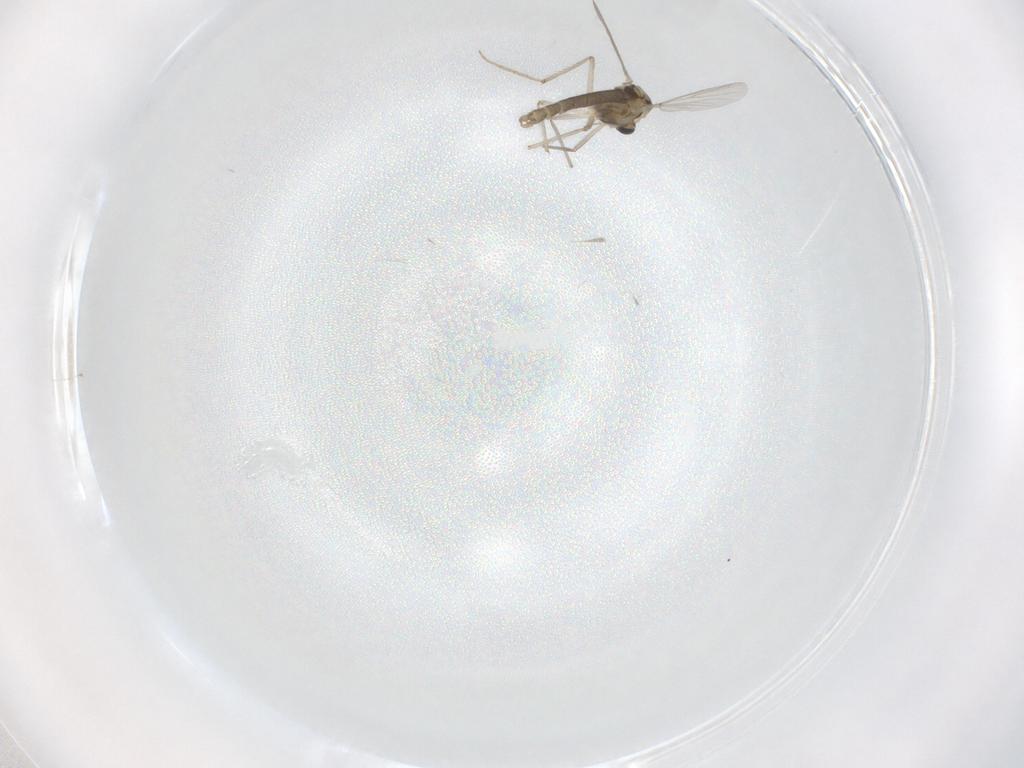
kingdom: Animalia
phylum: Arthropoda
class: Insecta
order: Diptera
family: Chironomidae
